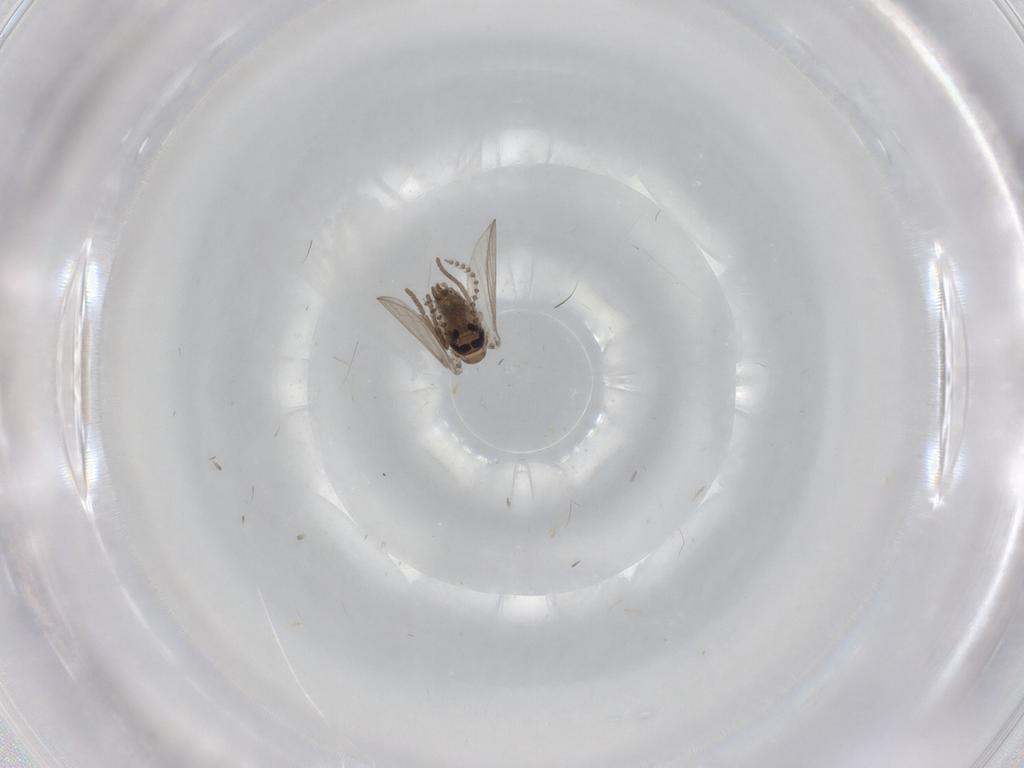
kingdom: Animalia
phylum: Arthropoda
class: Insecta
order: Diptera
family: Psychodidae
